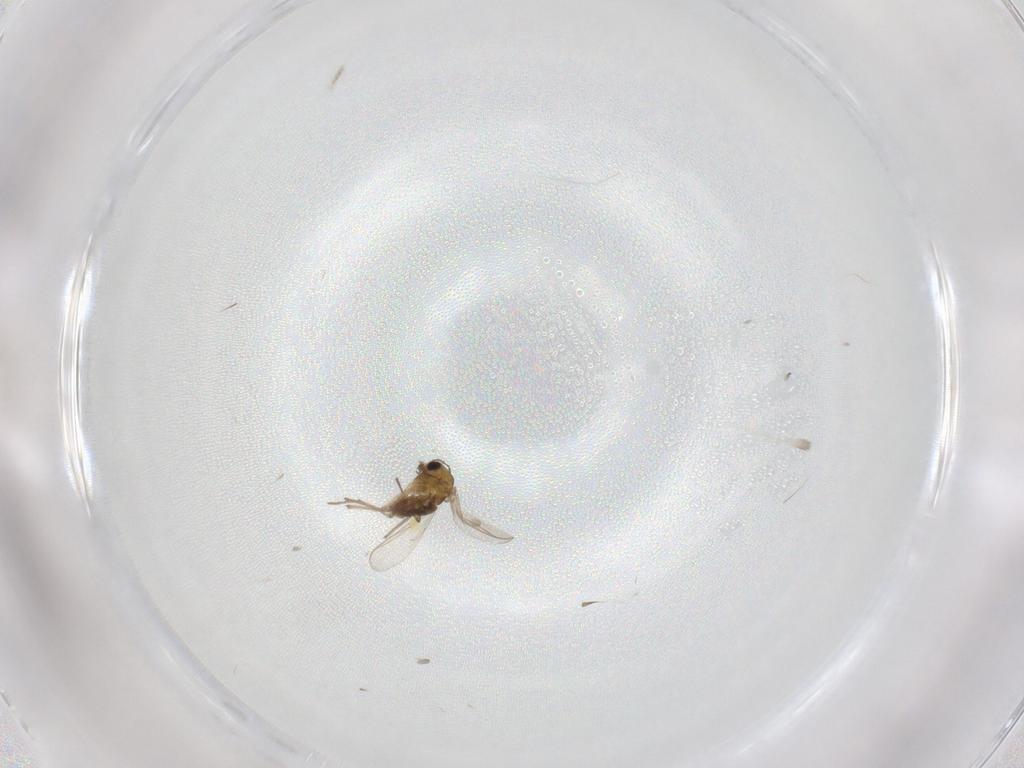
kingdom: Animalia
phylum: Arthropoda
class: Insecta
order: Diptera
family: Chironomidae
